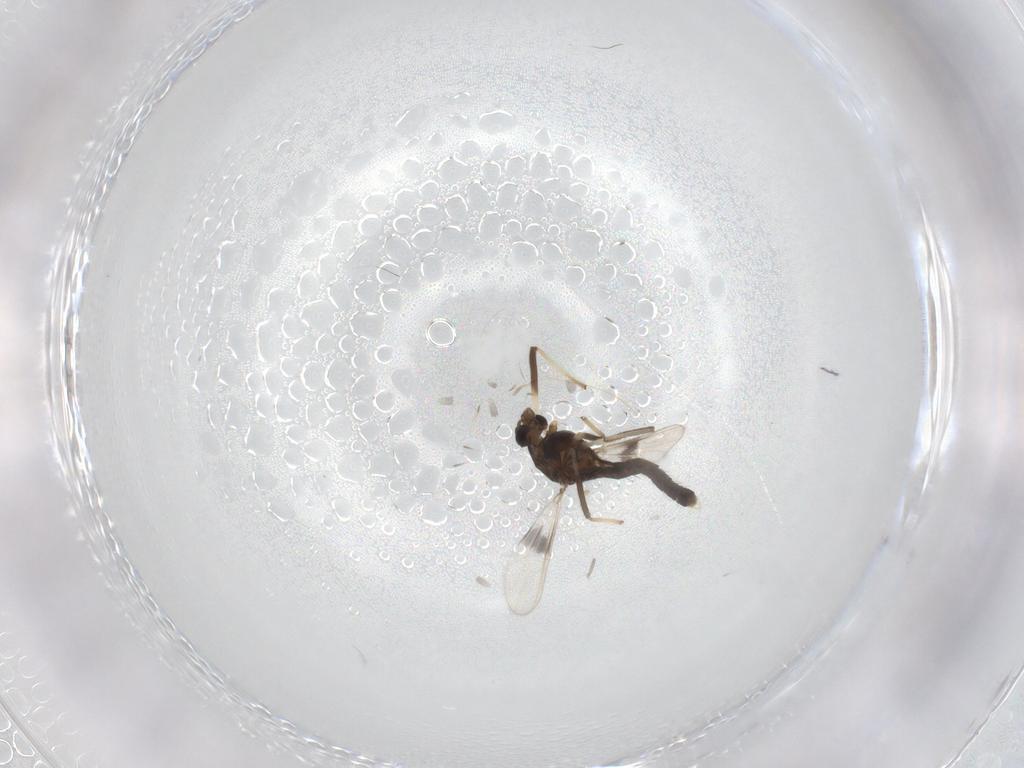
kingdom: Animalia
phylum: Arthropoda
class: Insecta
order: Diptera
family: Chironomidae
